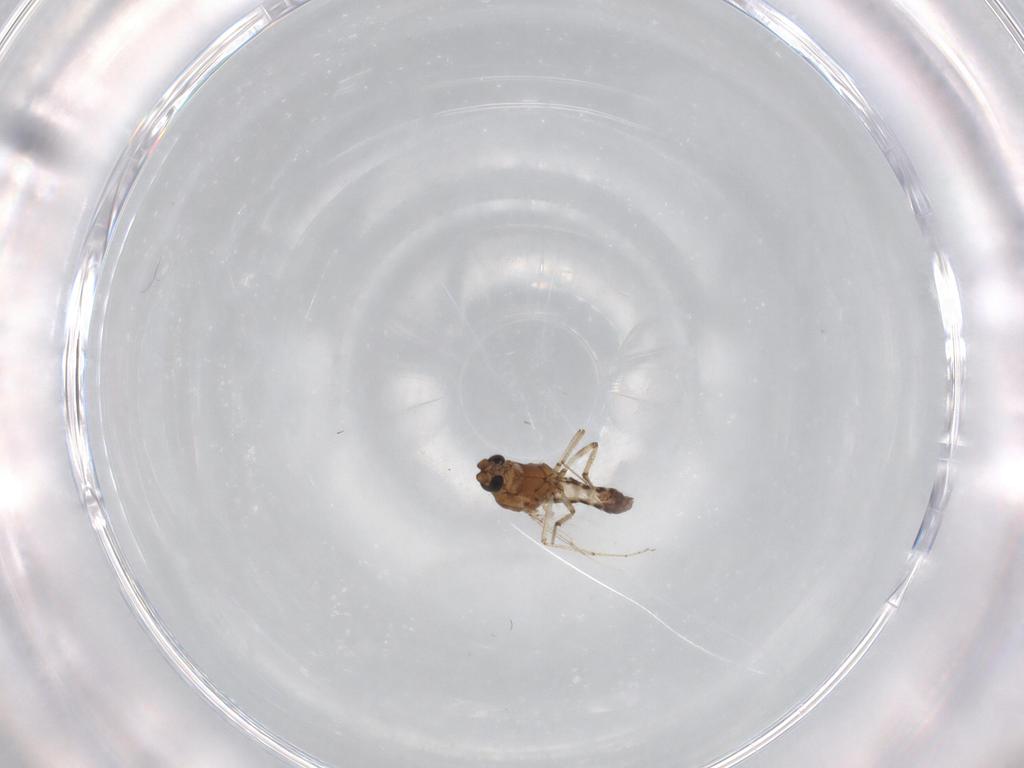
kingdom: Animalia
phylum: Arthropoda
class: Insecta
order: Diptera
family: Ceratopogonidae
